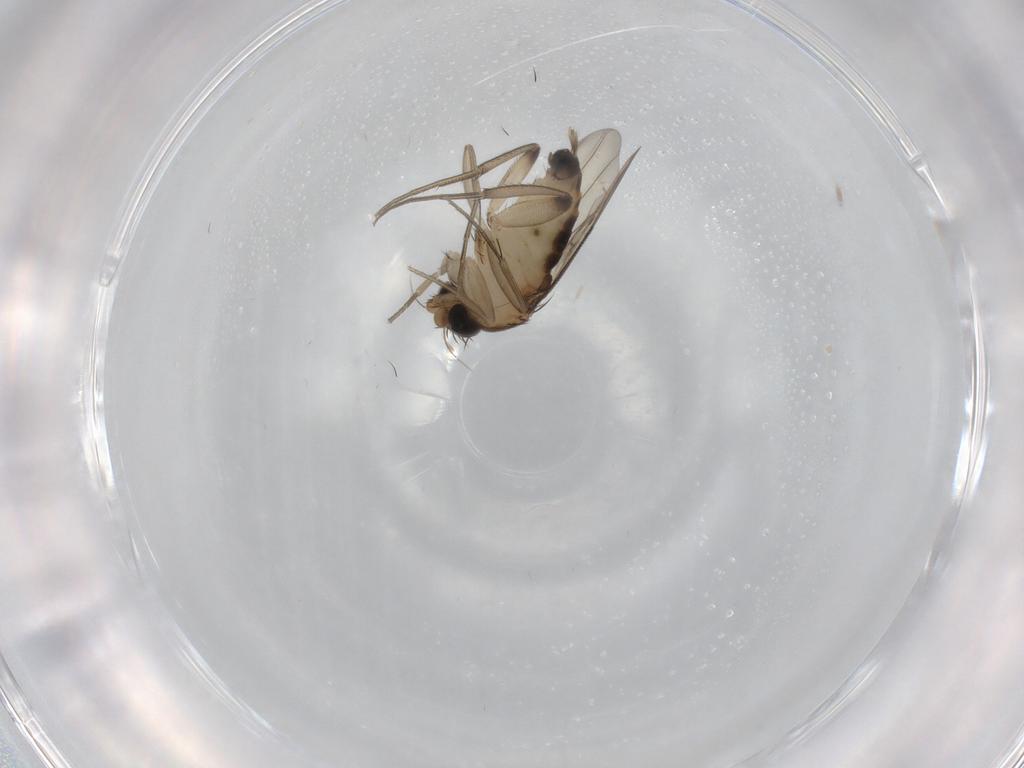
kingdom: Animalia
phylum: Arthropoda
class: Insecta
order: Diptera
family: Phoridae
